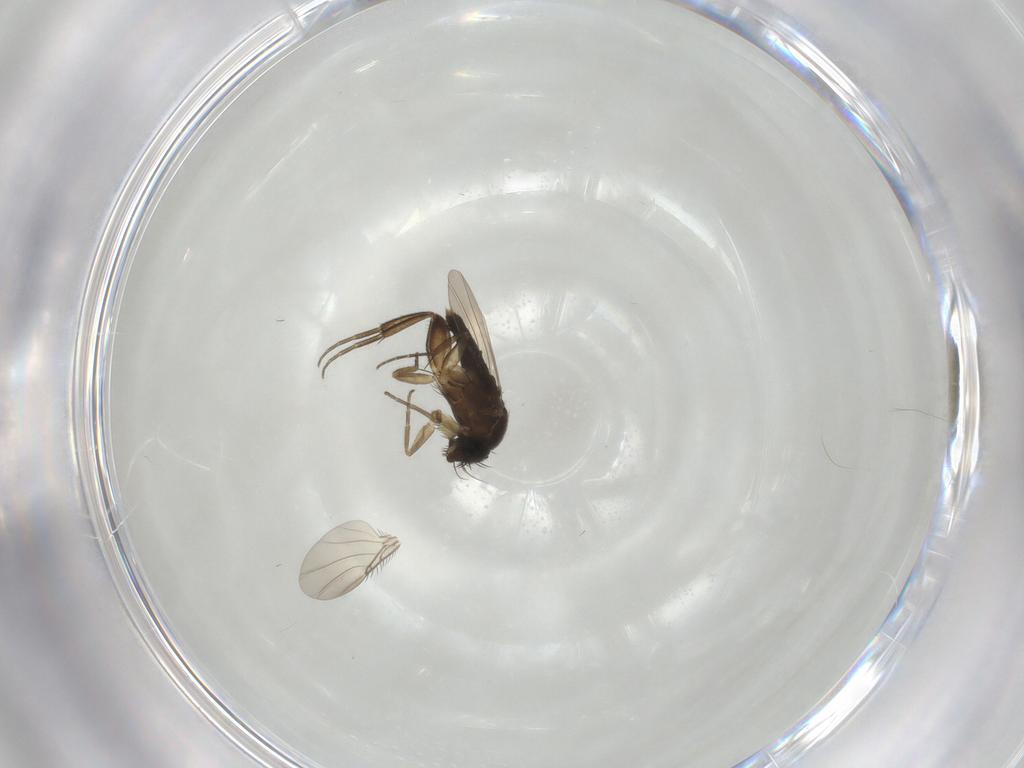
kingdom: Animalia
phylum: Arthropoda
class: Insecta
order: Diptera
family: Phoridae
